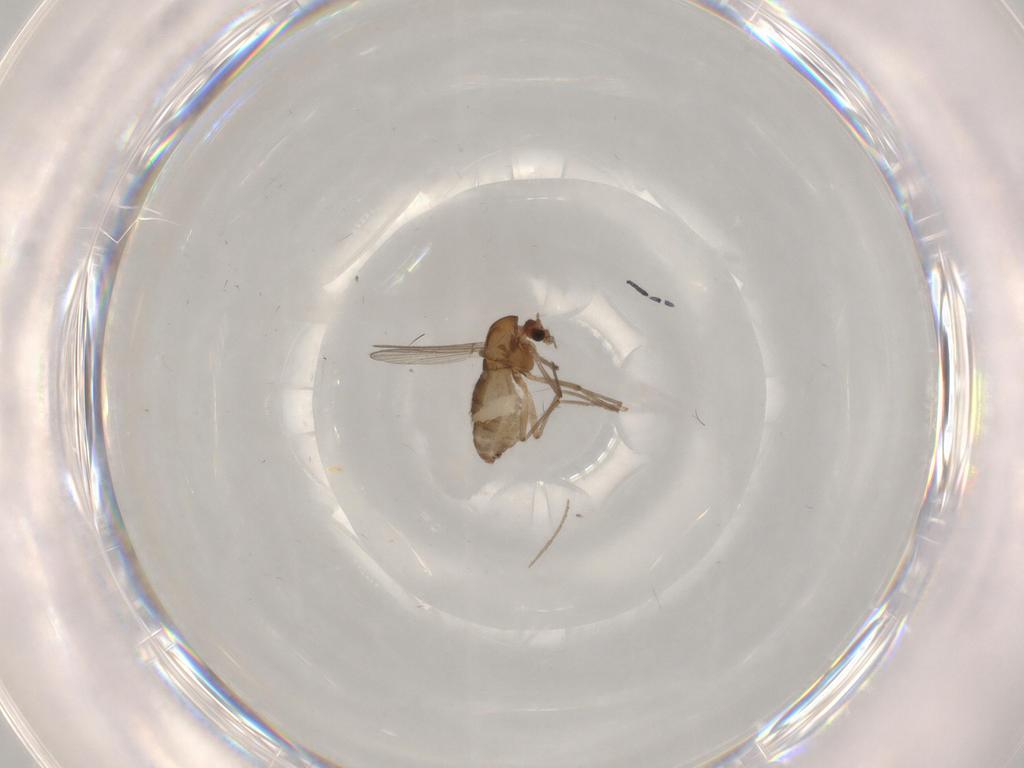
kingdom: Animalia
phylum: Arthropoda
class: Insecta
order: Diptera
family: Chironomidae
